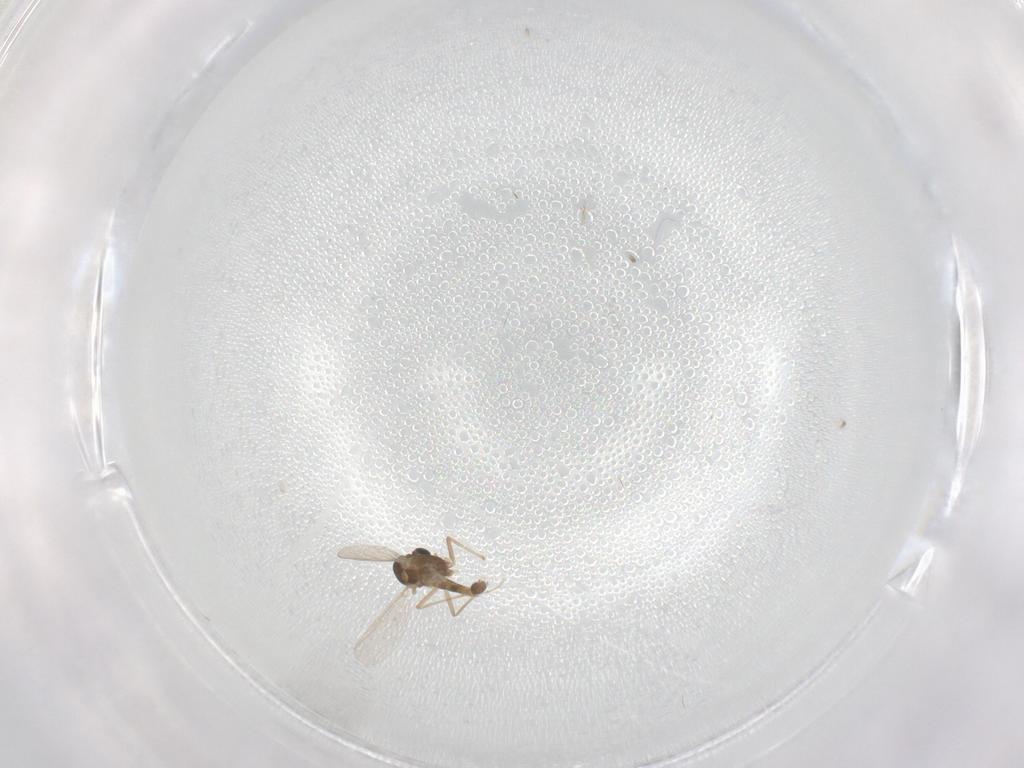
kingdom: Animalia
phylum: Arthropoda
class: Insecta
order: Diptera
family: Chironomidae
